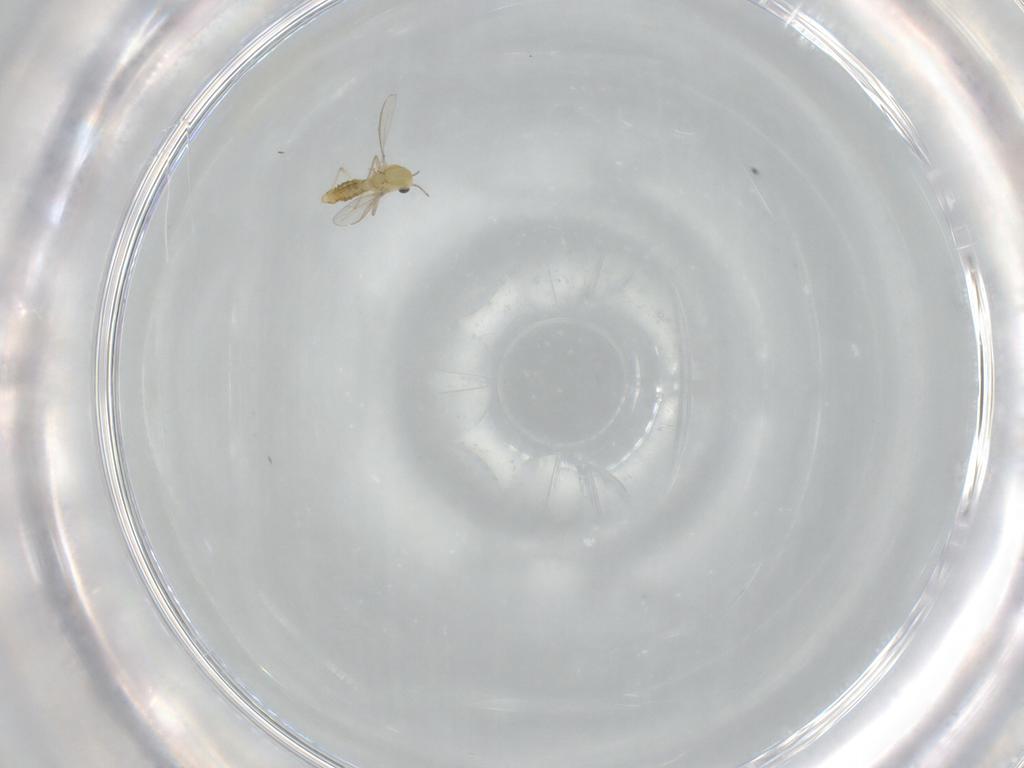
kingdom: Animalia
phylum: Arthropoda
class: Insecta
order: Diptera
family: Chironomidae
